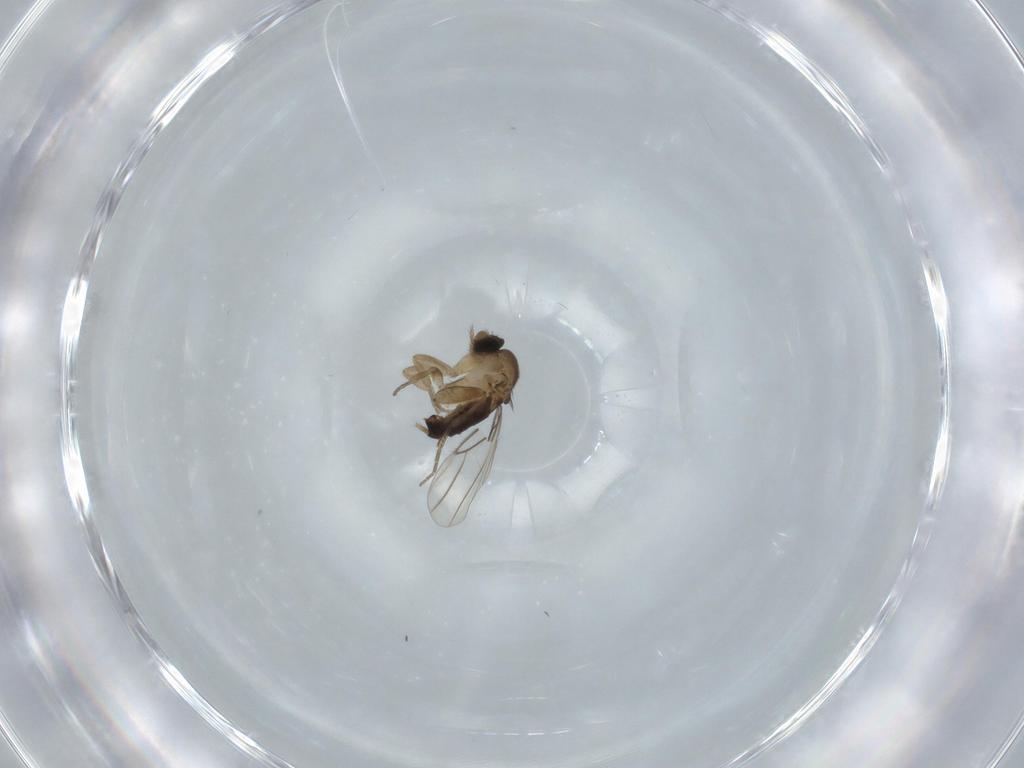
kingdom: Animalia
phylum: Arthropoda
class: Insecta
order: Diptera
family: Phoridae
